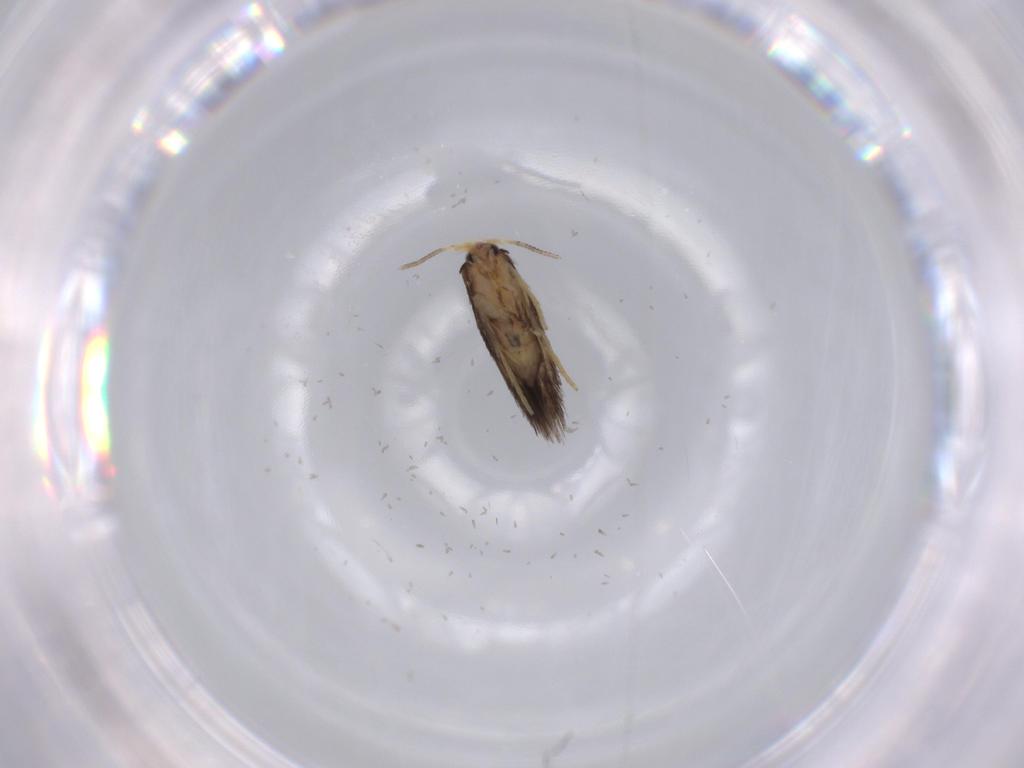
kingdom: Animalia
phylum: Arthropoda
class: Insecta
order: Lepidoptera
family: Nepticulidae
